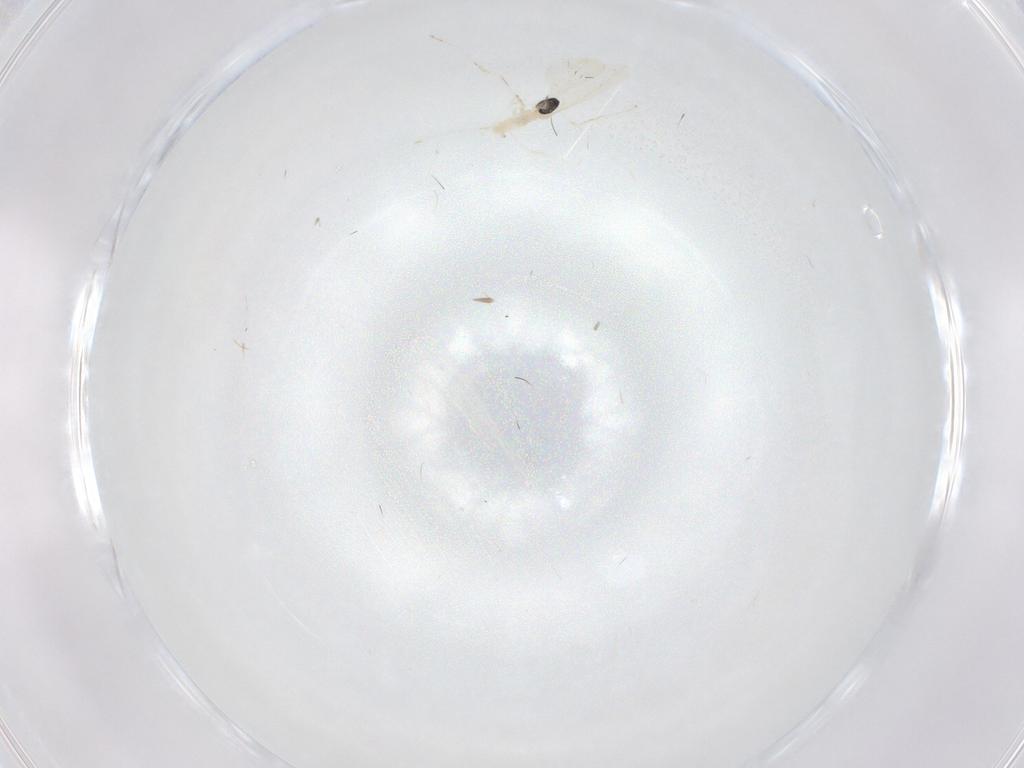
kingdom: Animalia
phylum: Arthropoda
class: Insecta
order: Diptera
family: Cecidomyiidae
